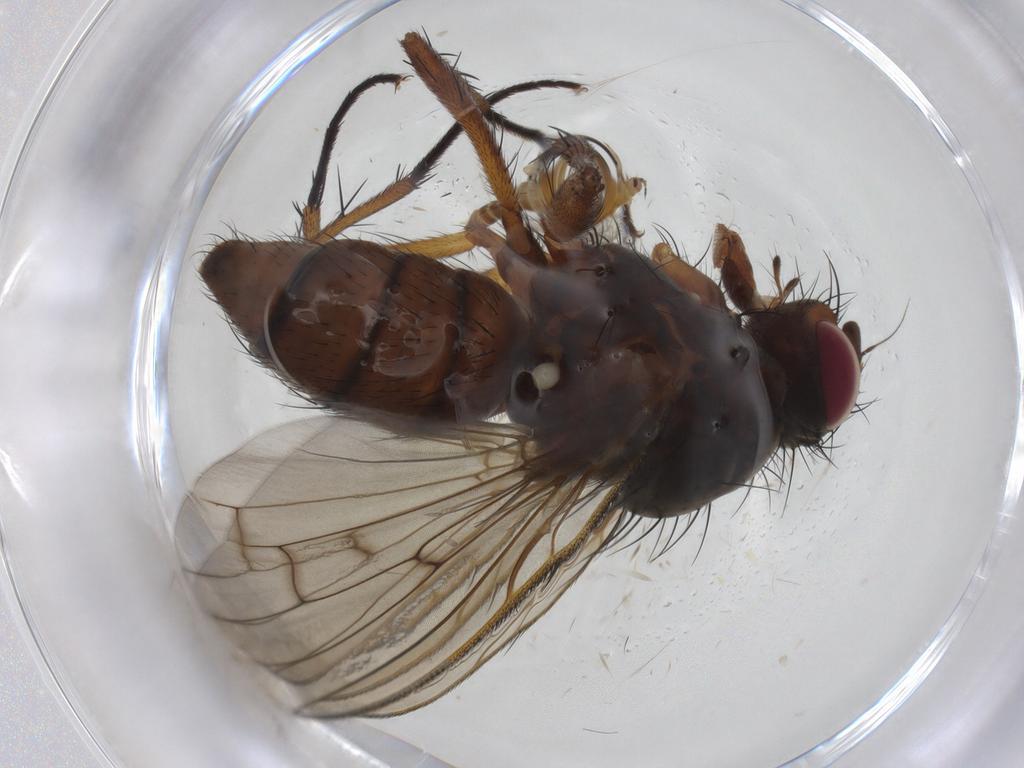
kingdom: Animalia
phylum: Arthropoda
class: Insecta
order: Diptera
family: Anthomyiidae
